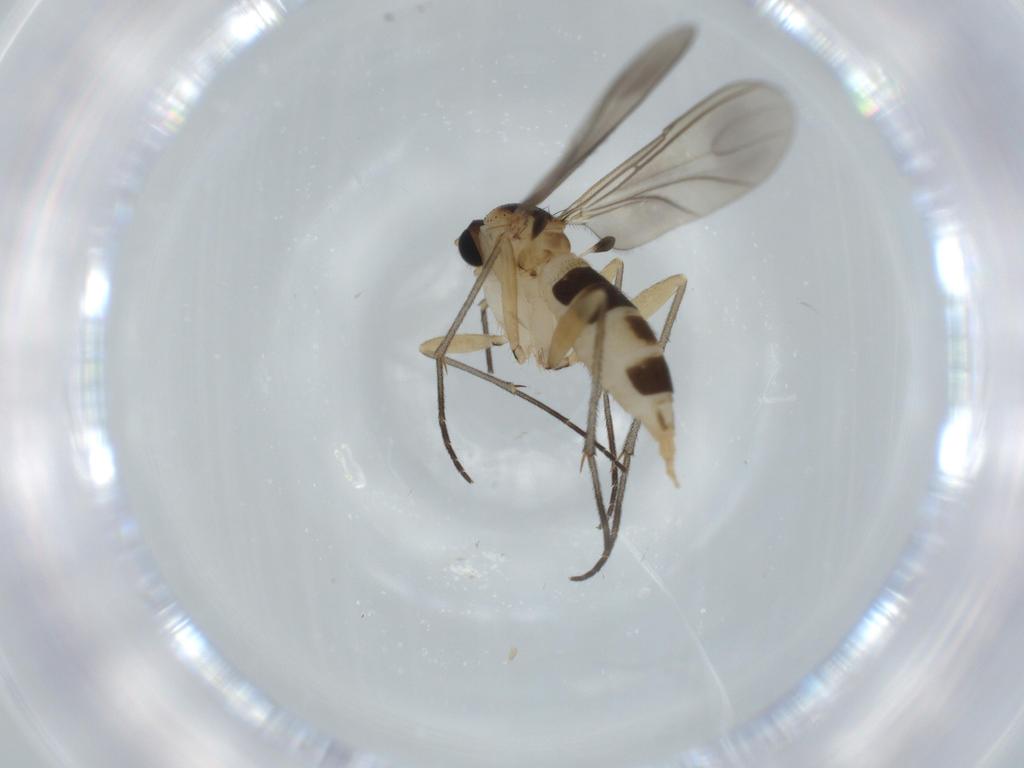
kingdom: Animalia
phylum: Arthropoda
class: Insecta
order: Diptera
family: Sciaridae
